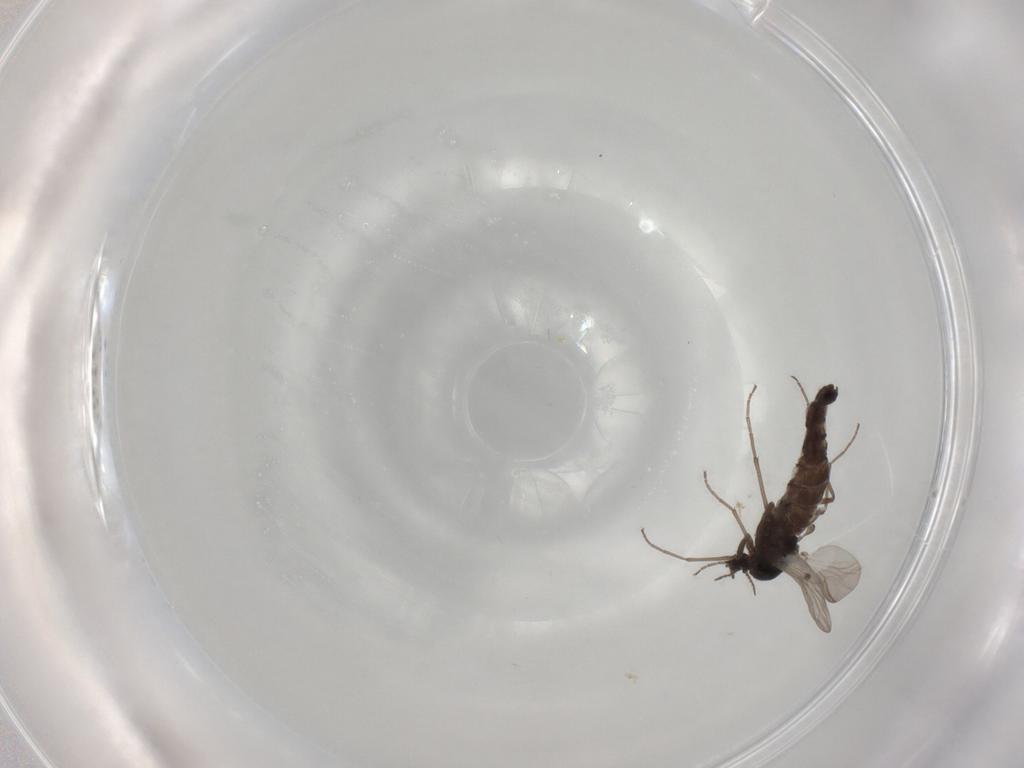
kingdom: Animalia
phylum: Arthropoda
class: Insecta
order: Diptera
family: Chironomidae
